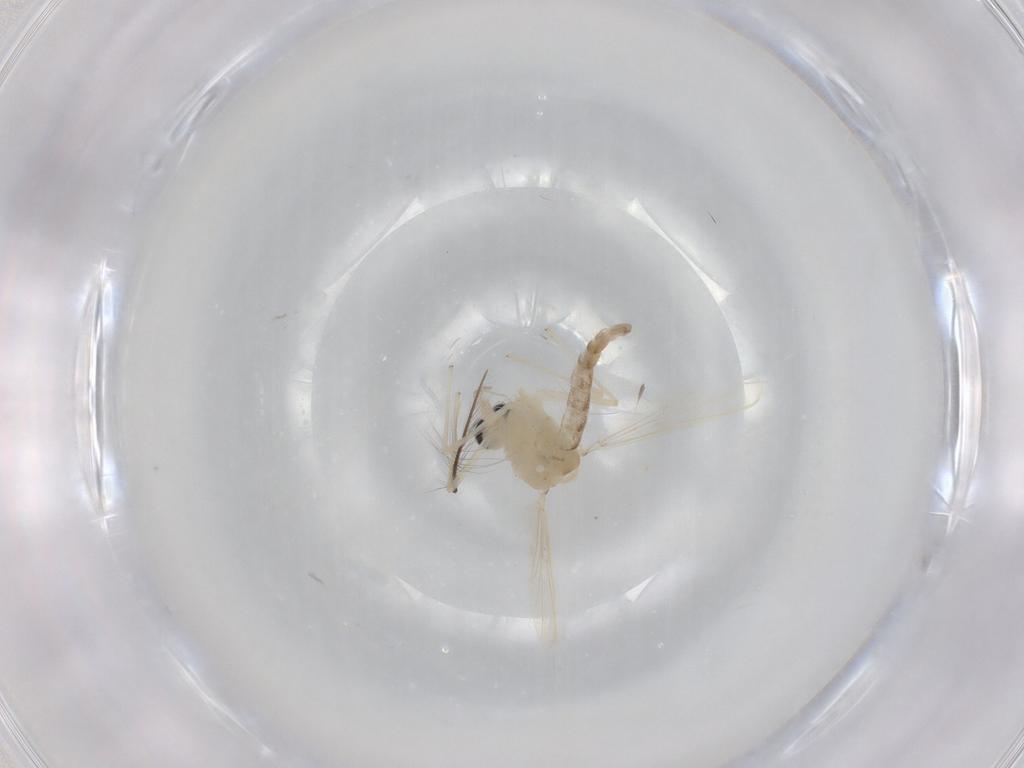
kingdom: Animalia
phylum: Arthropoda
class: Insecta
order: Diptera
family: Chironomidae
